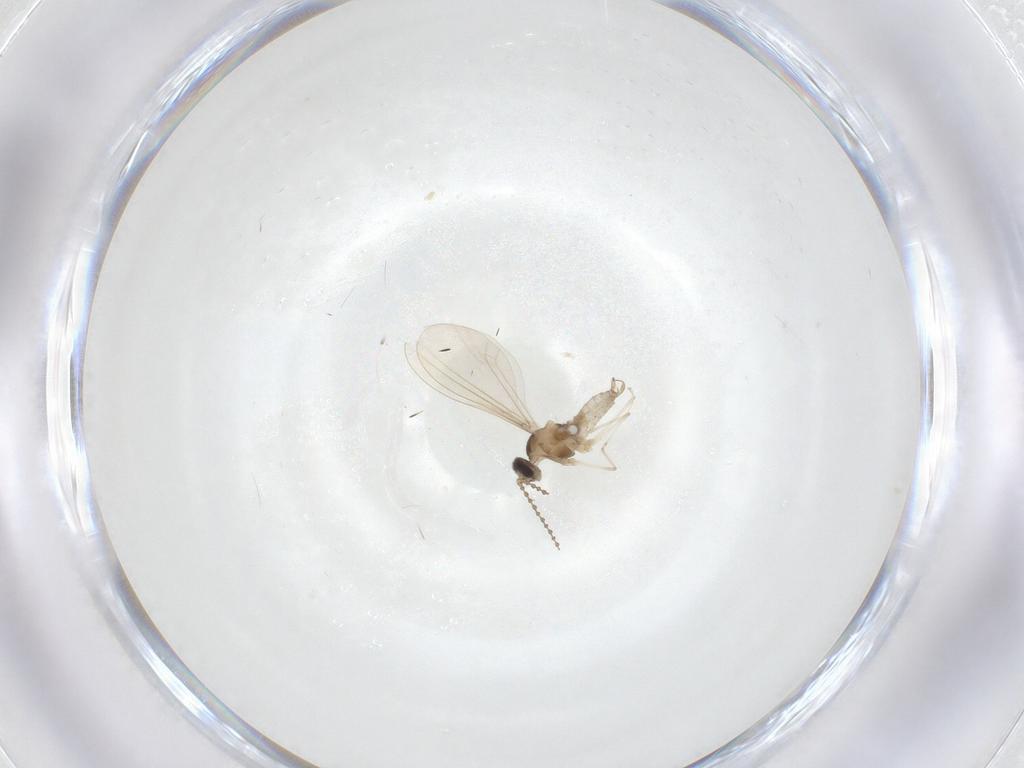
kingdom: Animalia
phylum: Arthropoda
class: Insecta
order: Diptera
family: Cecidomyiidae
